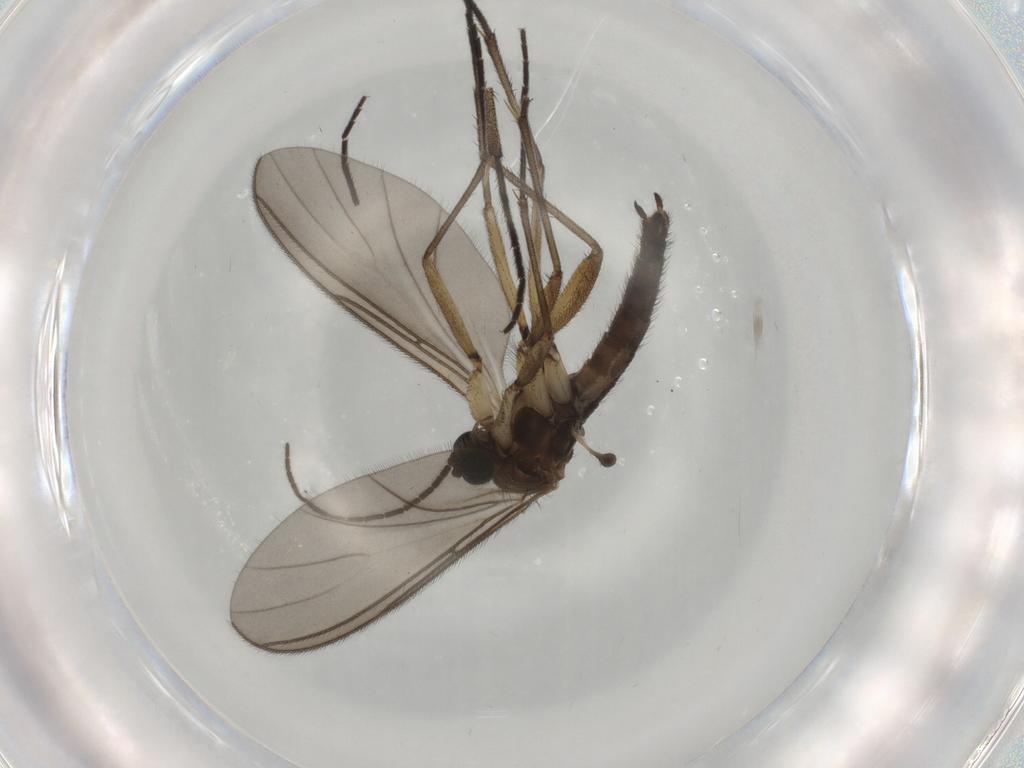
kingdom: Animalia
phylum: Arthropoda
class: Insecta
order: Diptera
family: Sciaridae
